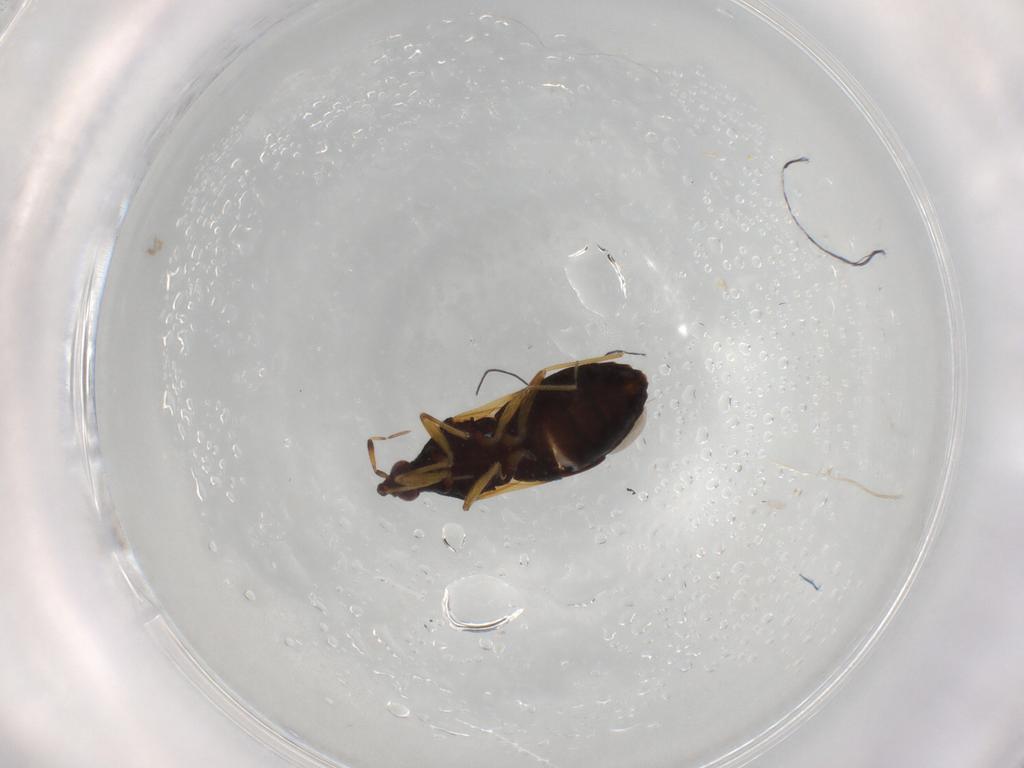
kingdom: Animalia
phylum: Arthropoda
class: Insecta
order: Hemiptera
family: Anthocoridae
